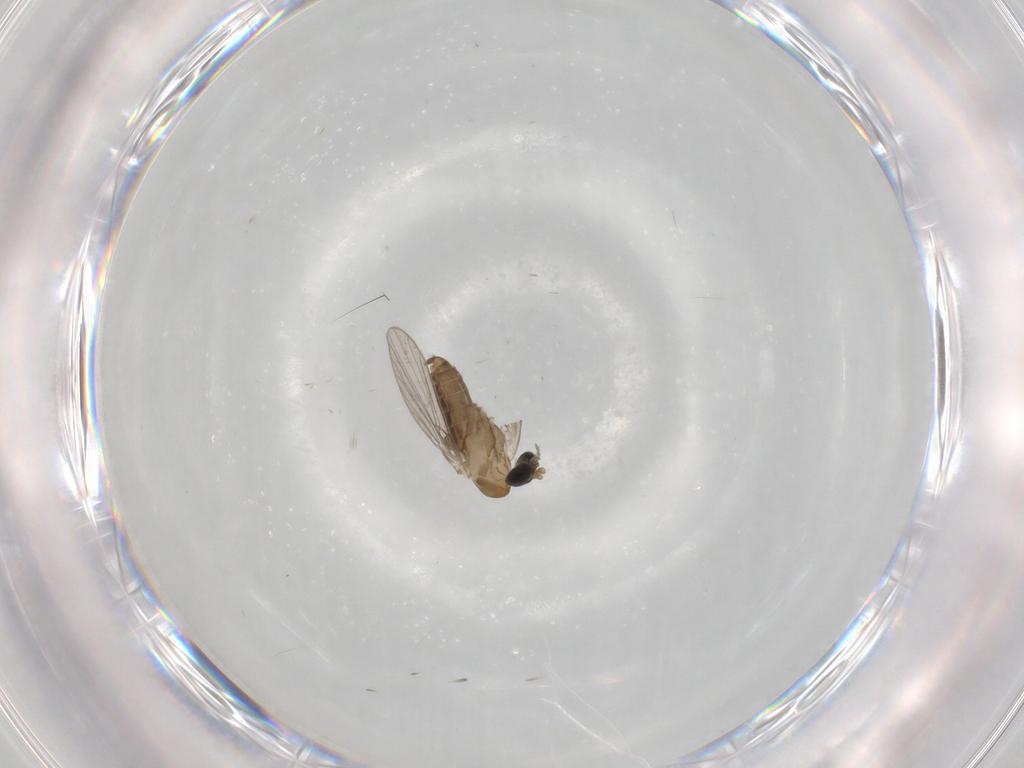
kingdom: Animalia
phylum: Arthropoda
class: Insecta
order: Diptera
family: Psychodidae
